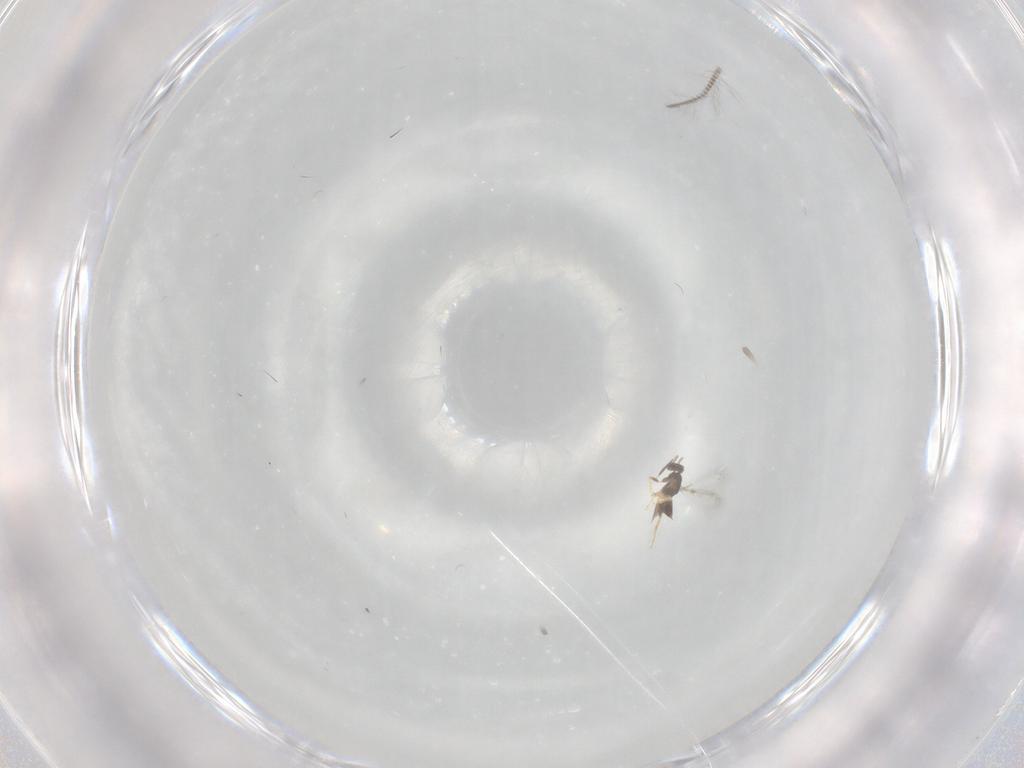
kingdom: Animalia
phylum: Arthropoda
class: Insecta
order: Hymenoptera
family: Mymaridae
